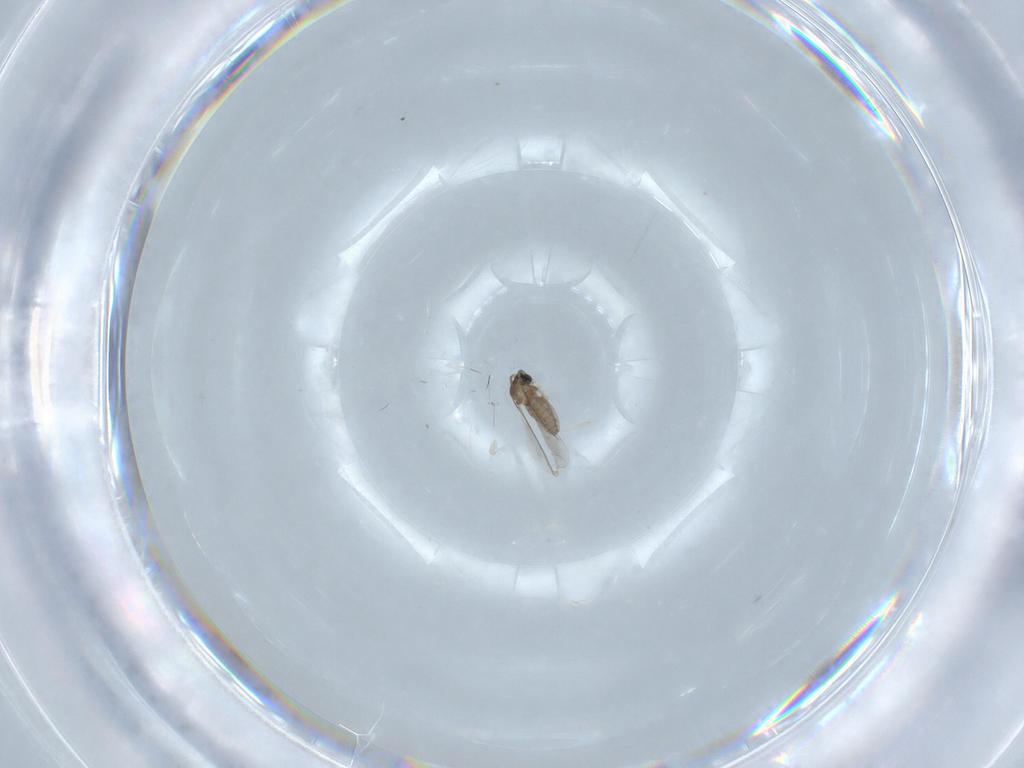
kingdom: Animalia
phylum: Arthropoda
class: Insecta
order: Diptera
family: Cecidomyiidae
